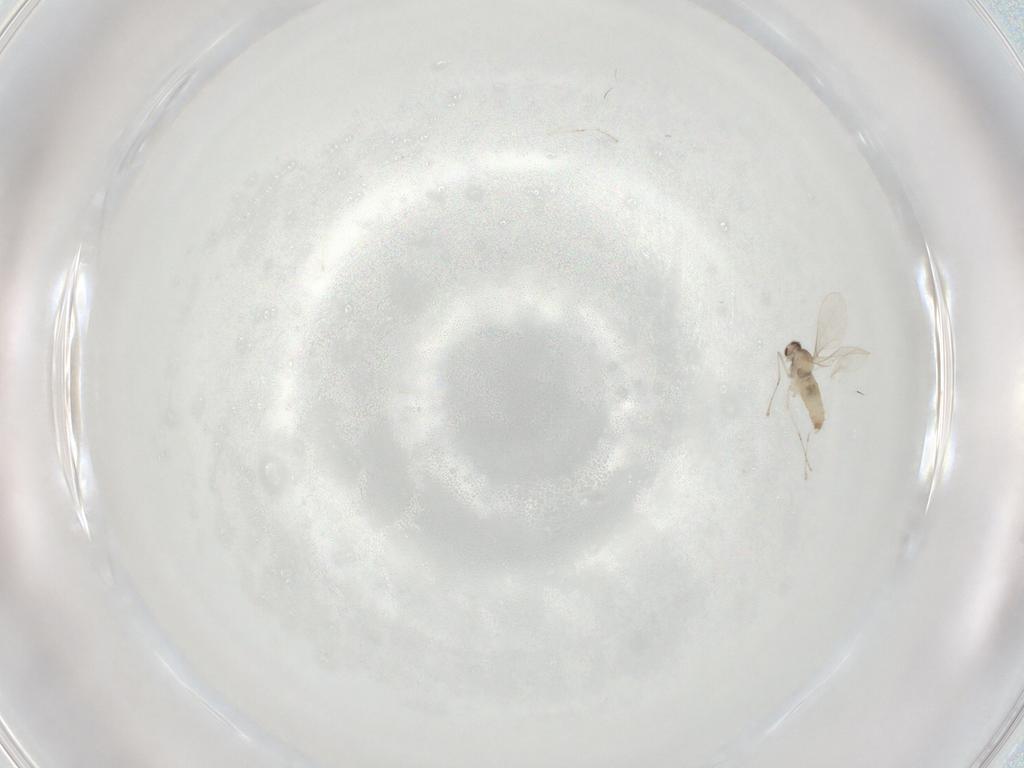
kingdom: Animalia
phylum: Arthropoda
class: Insecta
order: Diptera
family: Cecidomyiidae
